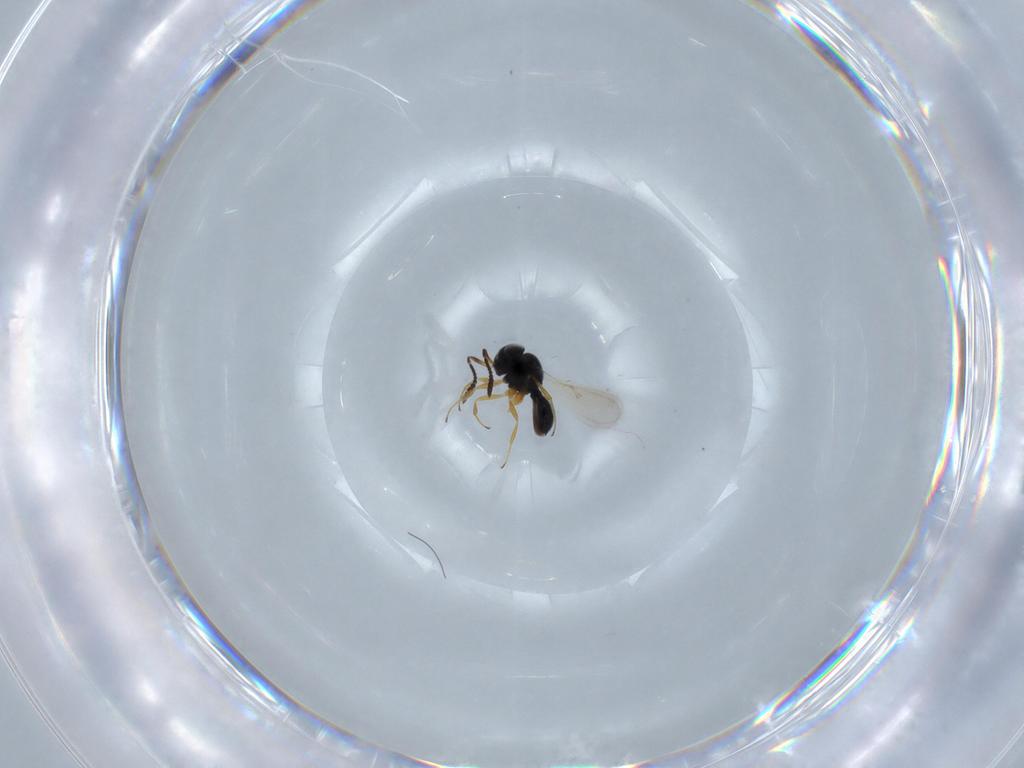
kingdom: Animalia
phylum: Arthropoda
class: Insecta
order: Hymenoptera
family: Scelionidae
